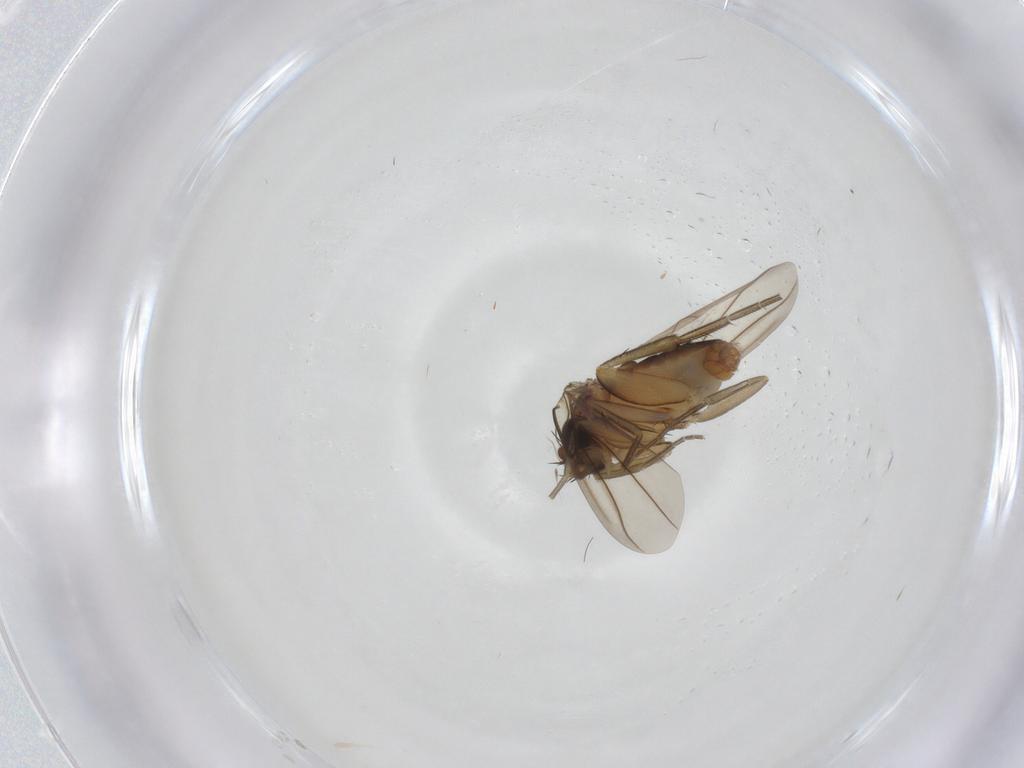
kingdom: Animalia
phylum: Arthropoda
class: Insecta
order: Diptera
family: Phoridae
